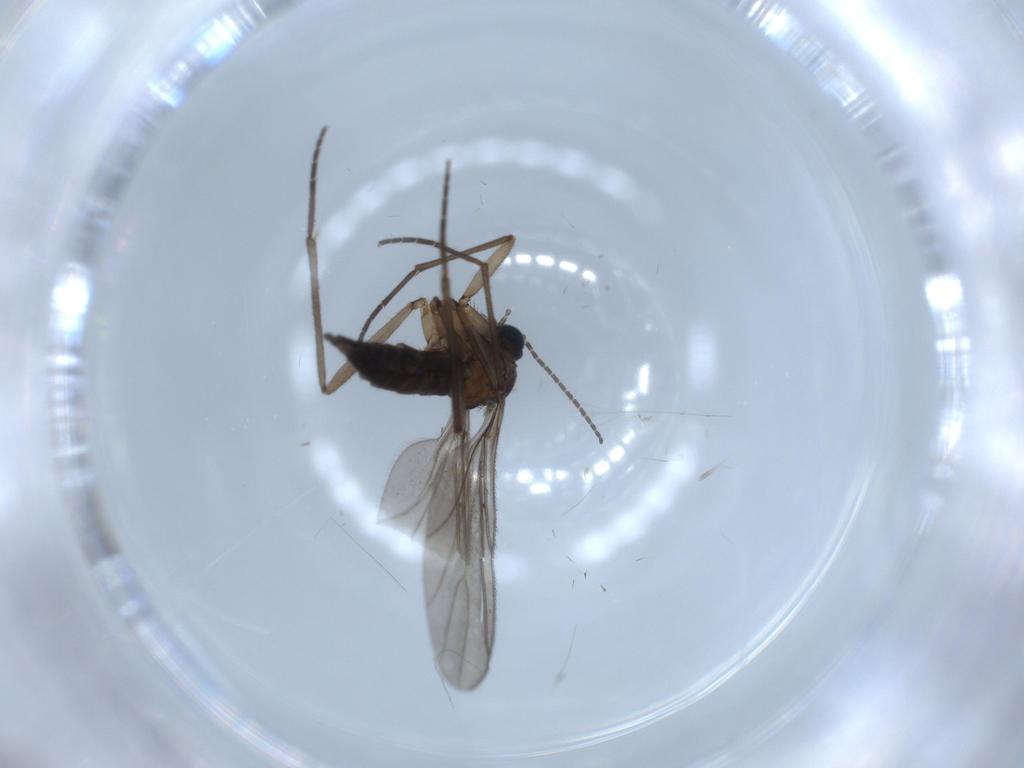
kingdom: Animalia
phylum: Arthropoda
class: Insecta
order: Diptera
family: Sciaridae
